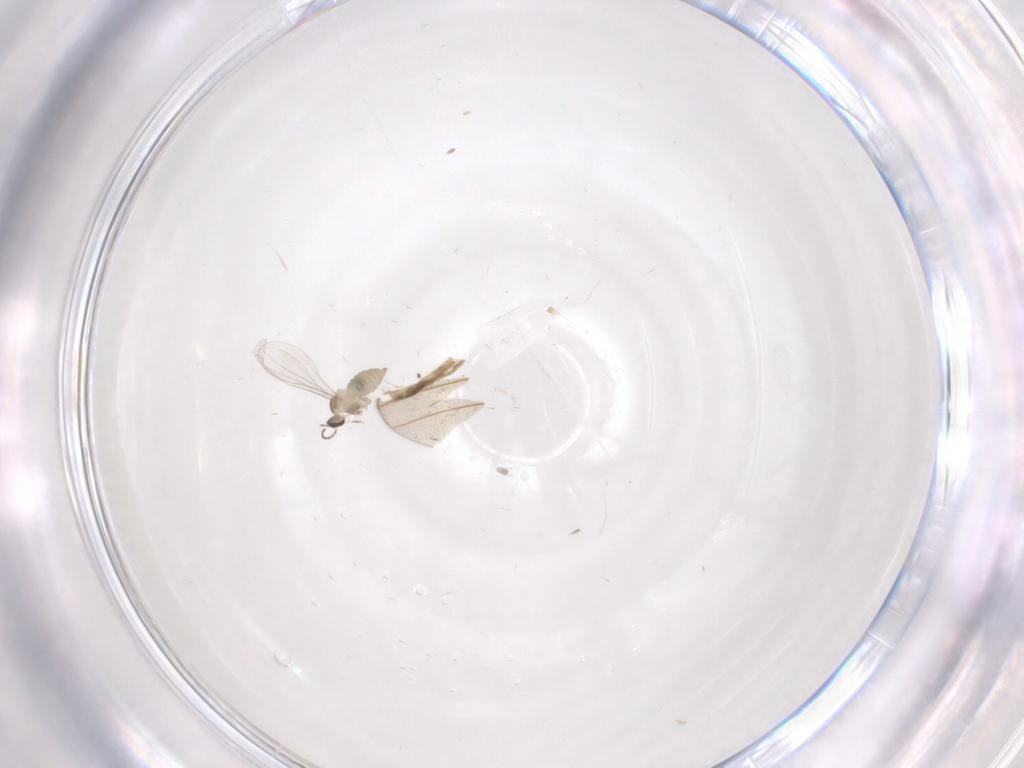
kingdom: Animalia
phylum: Arthropoda
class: Insecta
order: Diptera
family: Cecidomyiidae
